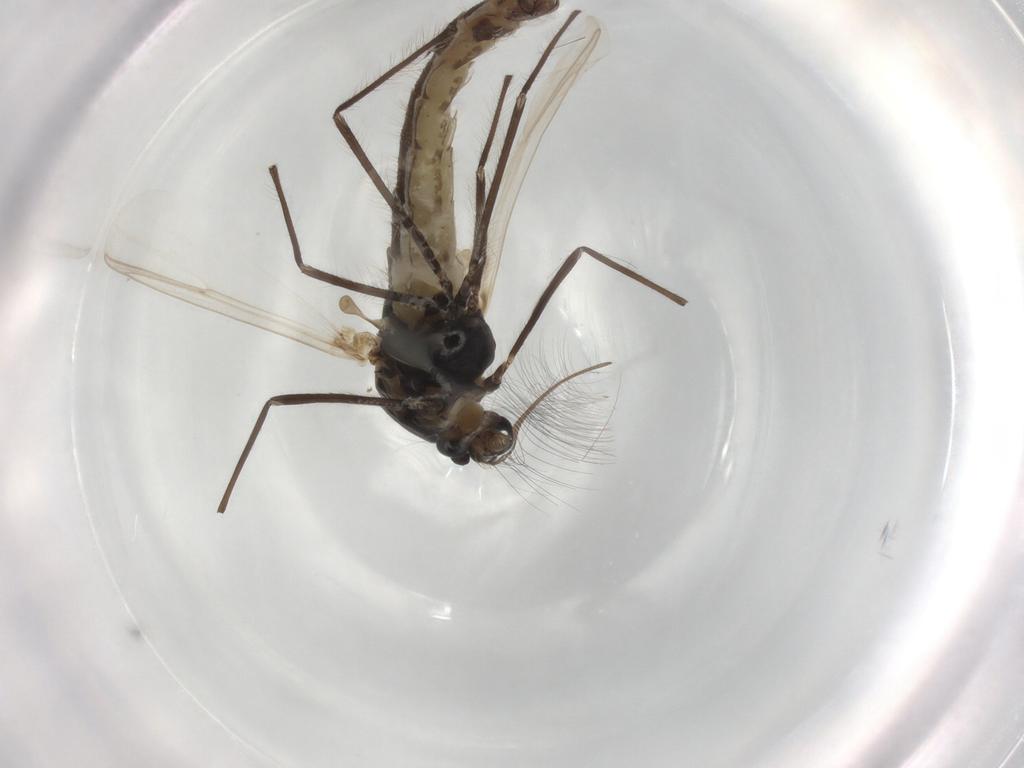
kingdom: Animalia
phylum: Arthropoda
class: Insecta
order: Diptera
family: Chironomidae
